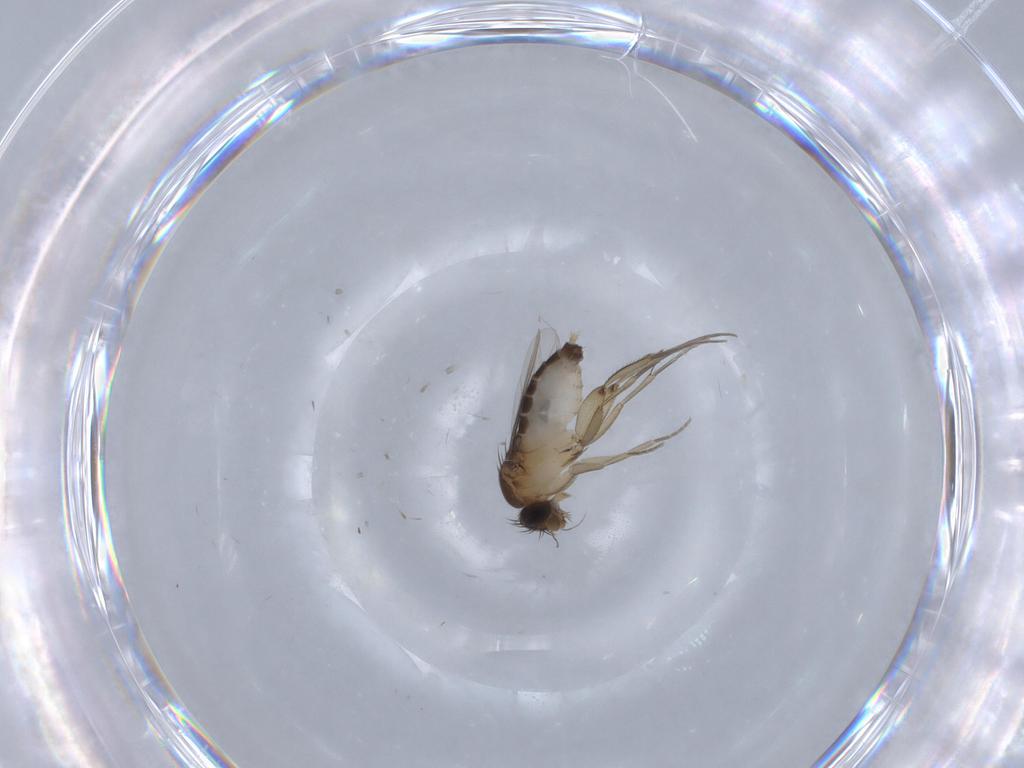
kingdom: Animalia
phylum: Arthropoda
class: Insecta
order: Diptera
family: Phoridae
